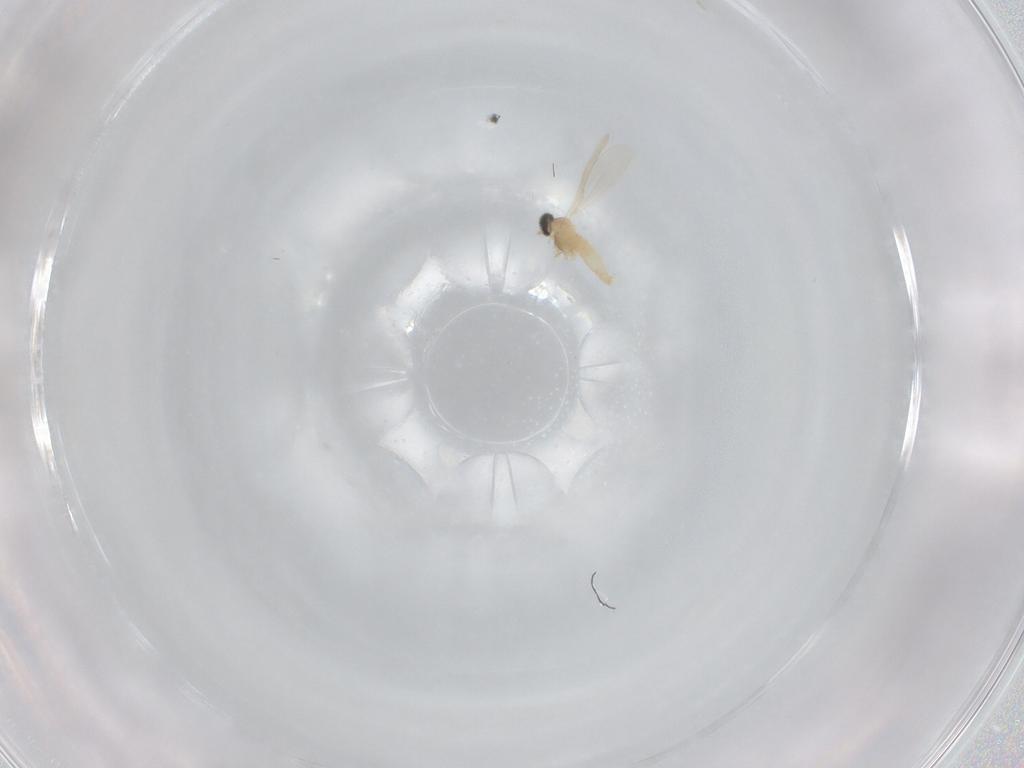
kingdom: Animalia
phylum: Arthropoda
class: Insecta
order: Diptera
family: Cecidomyiidae
